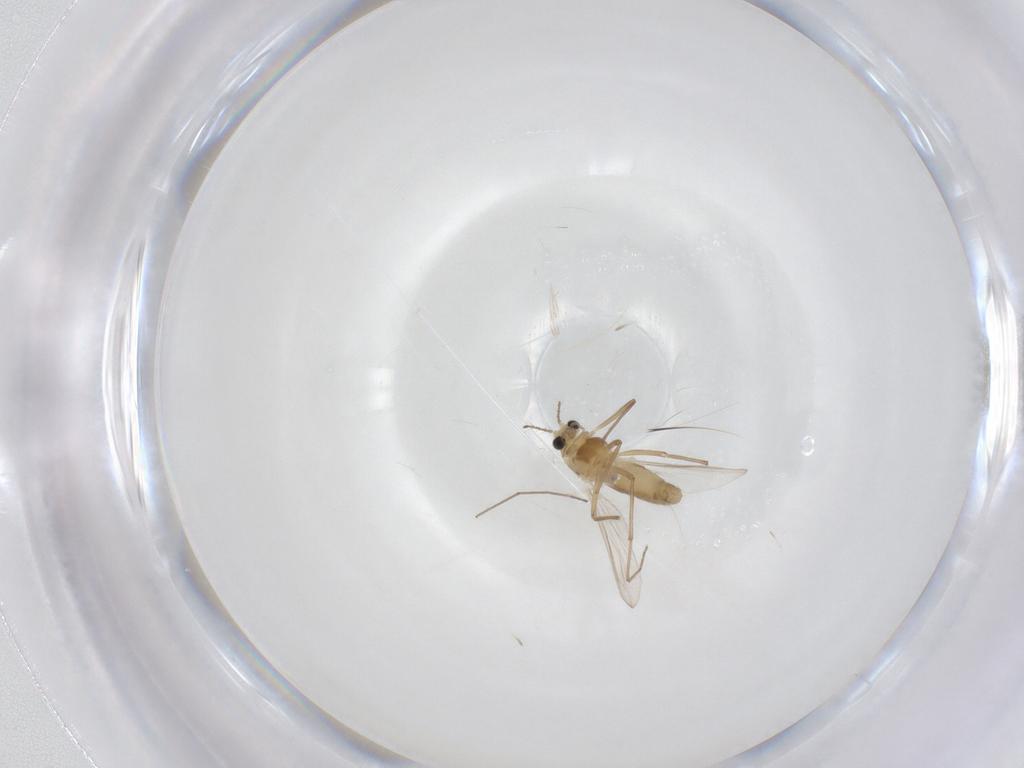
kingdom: Animalia
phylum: Arthropoda
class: Insecta
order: Diptera
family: Chironomidae
